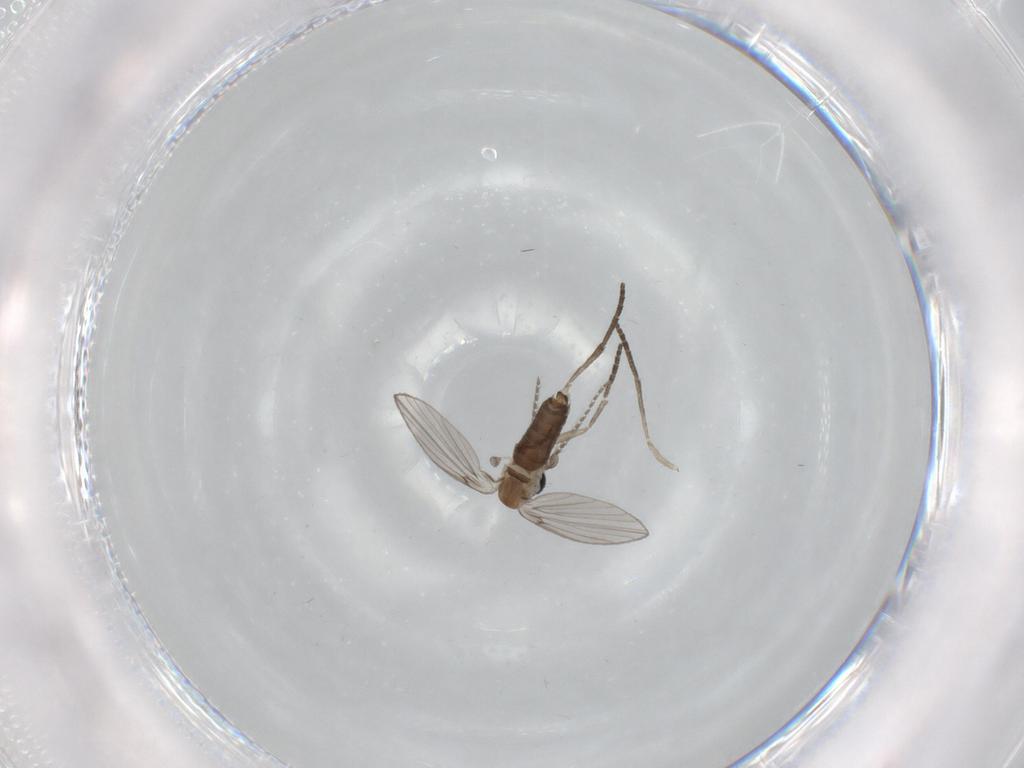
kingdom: Animalia
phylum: Arthropoda
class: Insecta
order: Diptera
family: Psychodidae
